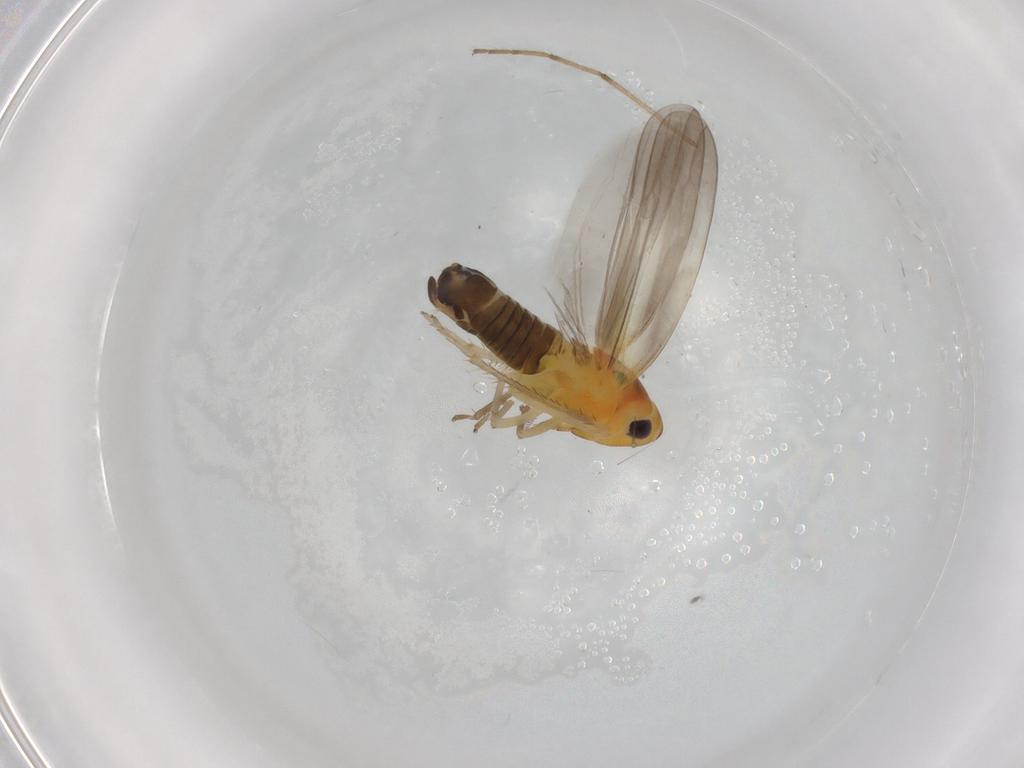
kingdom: Animalia
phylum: Arthropoda
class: Insecta
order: Hemiptera
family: Cicadellidae
